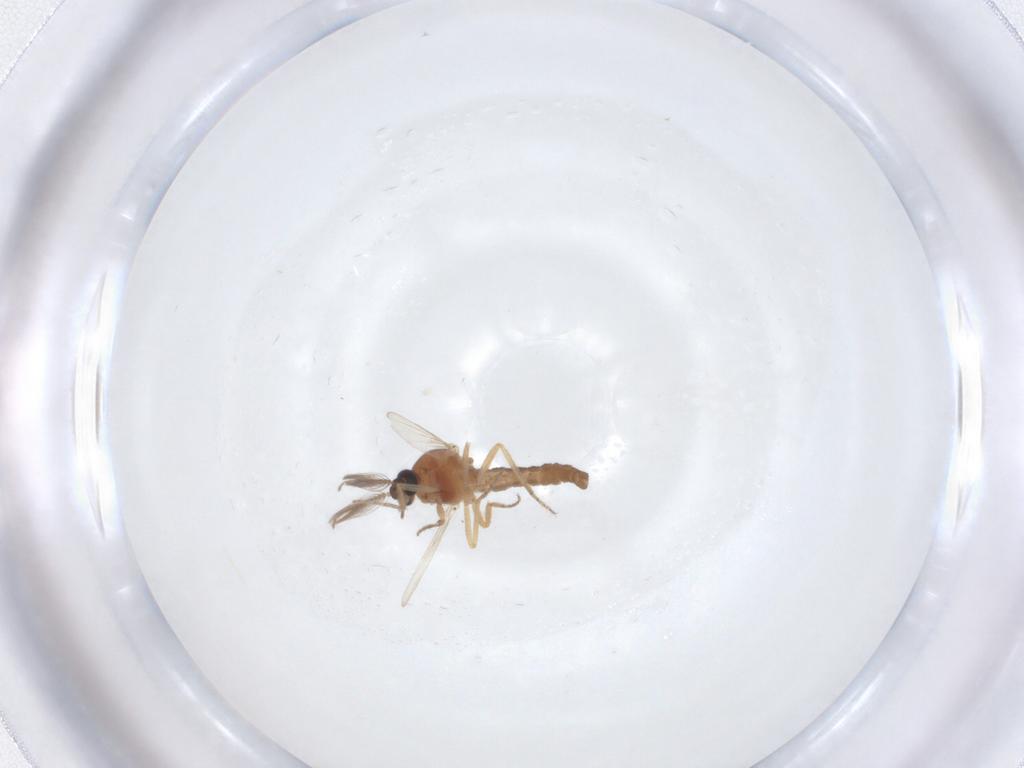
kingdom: Animalia
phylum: Arthropoda
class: Insecta
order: Diptera
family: Ceratopogonidae
